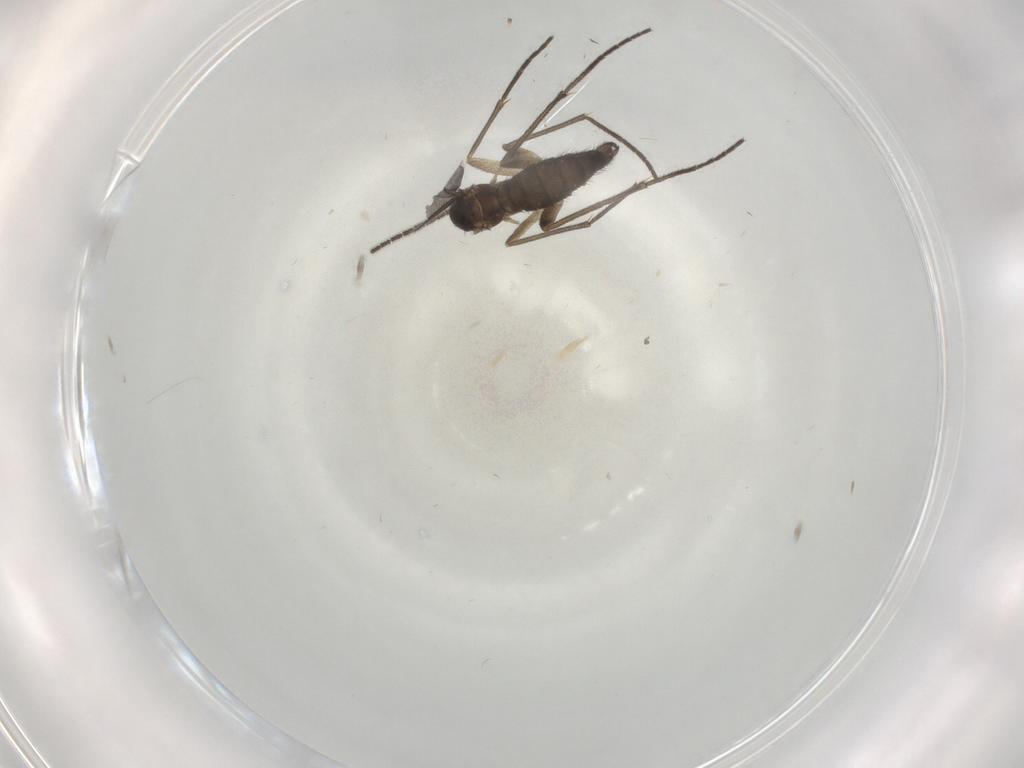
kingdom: Animalia
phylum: Arthropoda
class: Insecta
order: Diptera
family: Sciaridae
